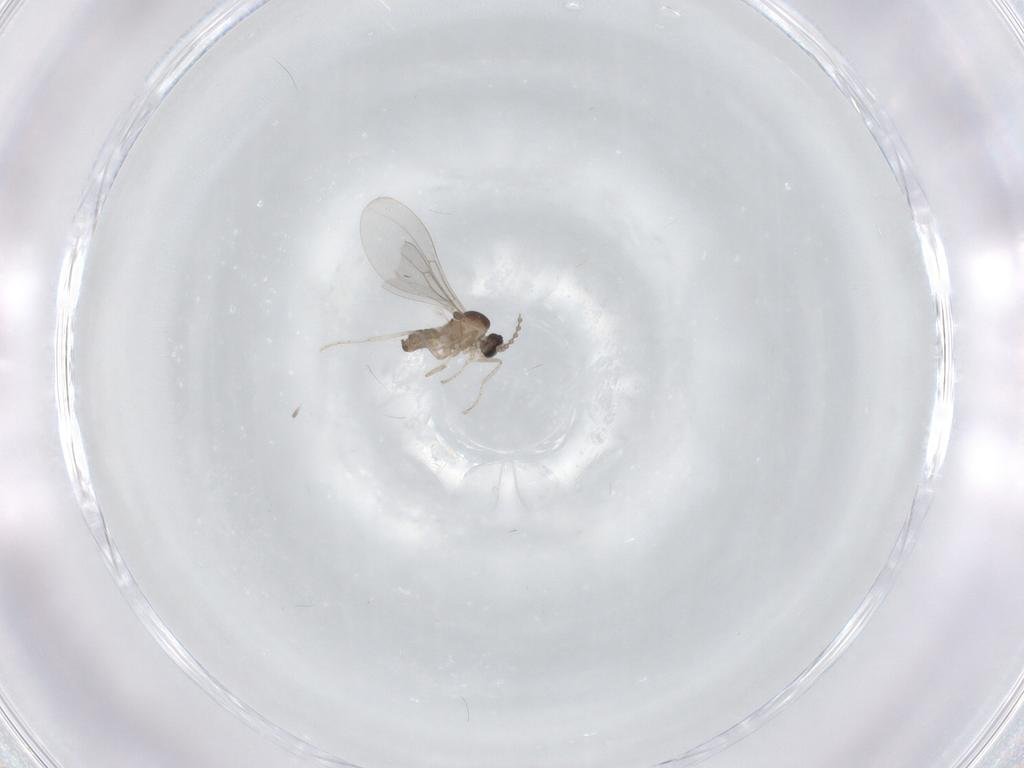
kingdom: Animalia
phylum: Arthropoda
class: Insecta
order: Diptera
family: Cecidomyiidae
